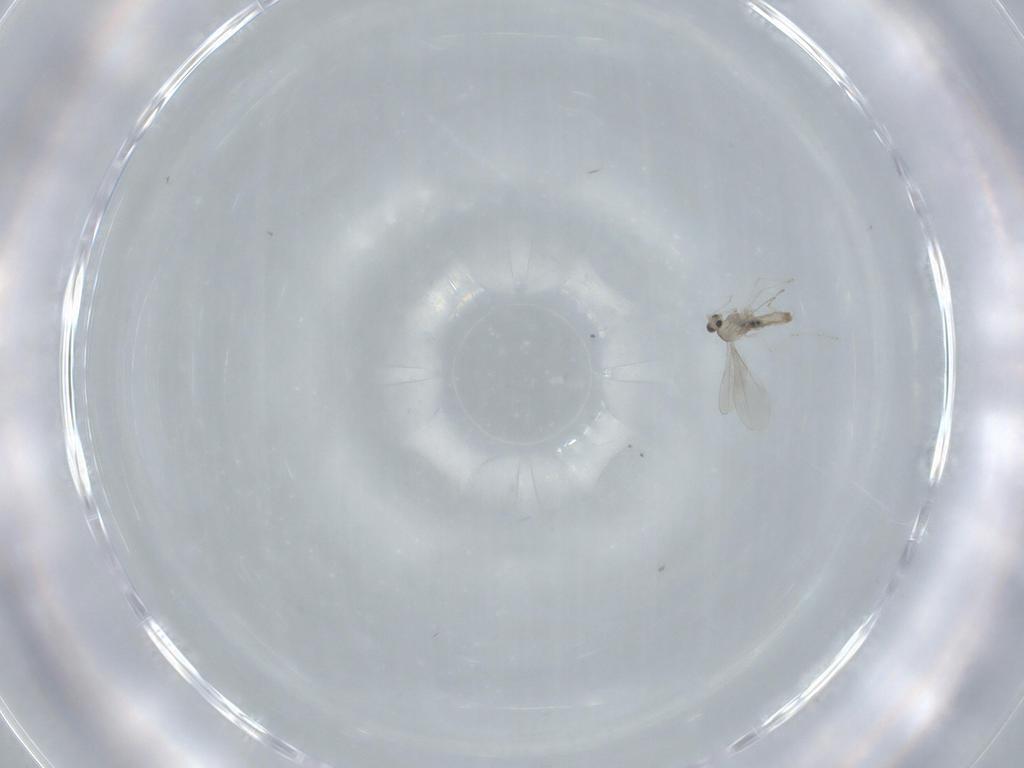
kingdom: Animalia
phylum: Arthropoda
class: Insecta
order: Diptera
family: Cecidomyiidae
